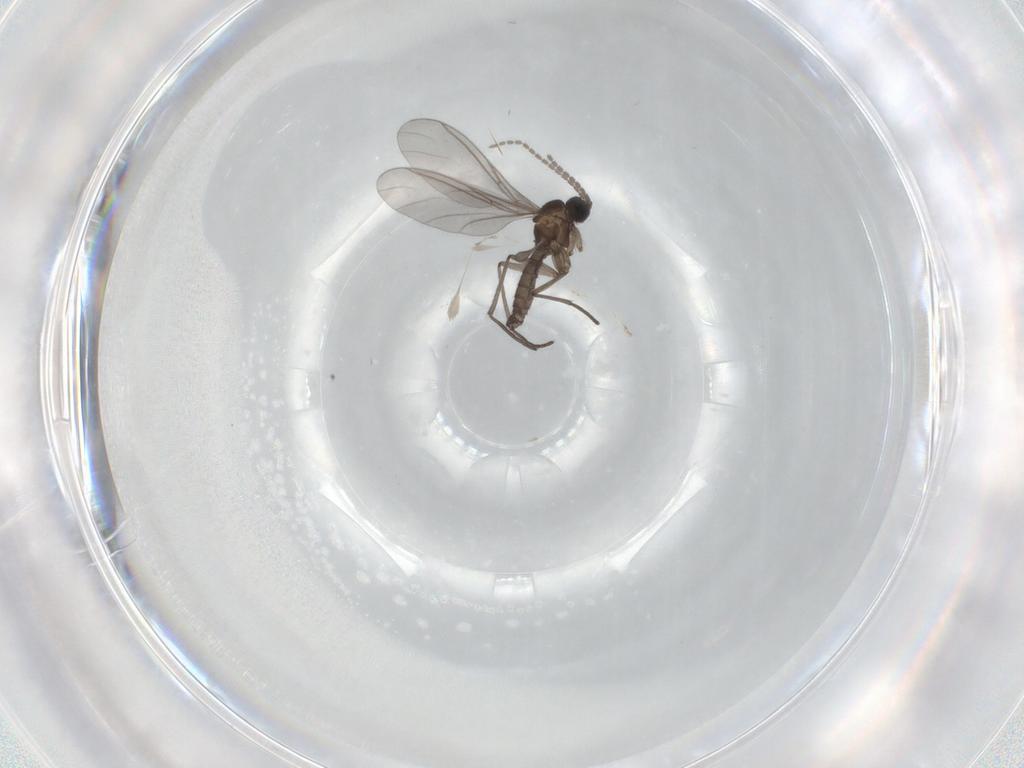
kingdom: Animalia
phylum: Arthropoda
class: Insecta
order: Diptera
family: Sciaridae
